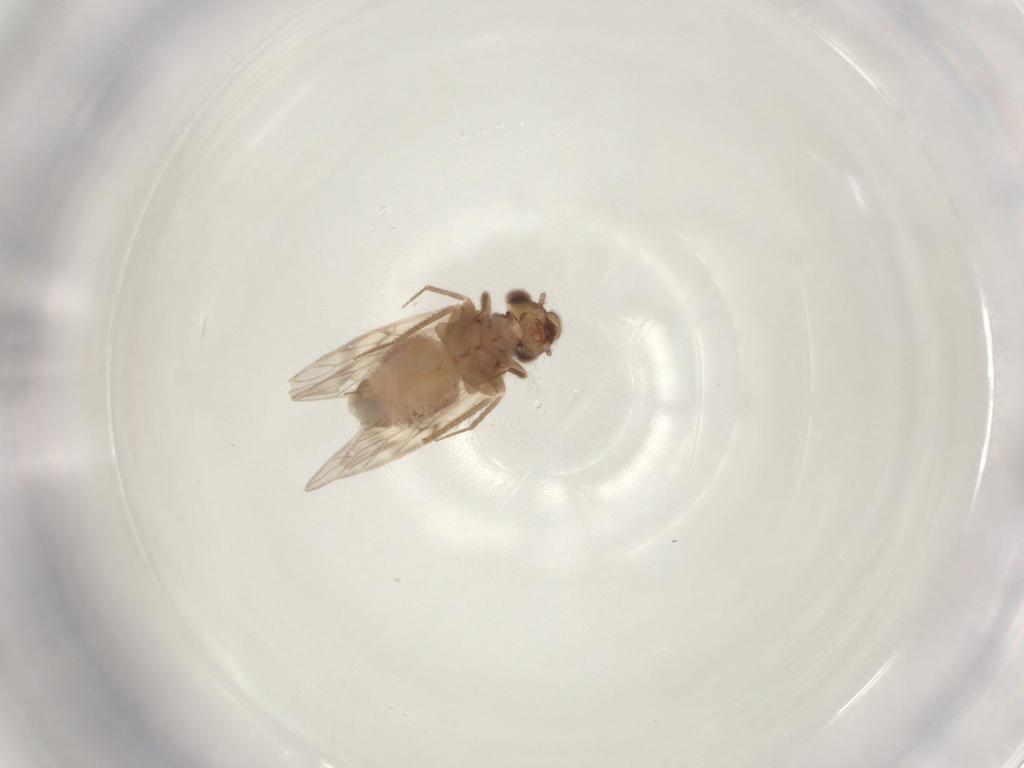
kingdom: Animalia
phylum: Arthropoda
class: Insecta
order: Psocodea
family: Lepidopsocidae
